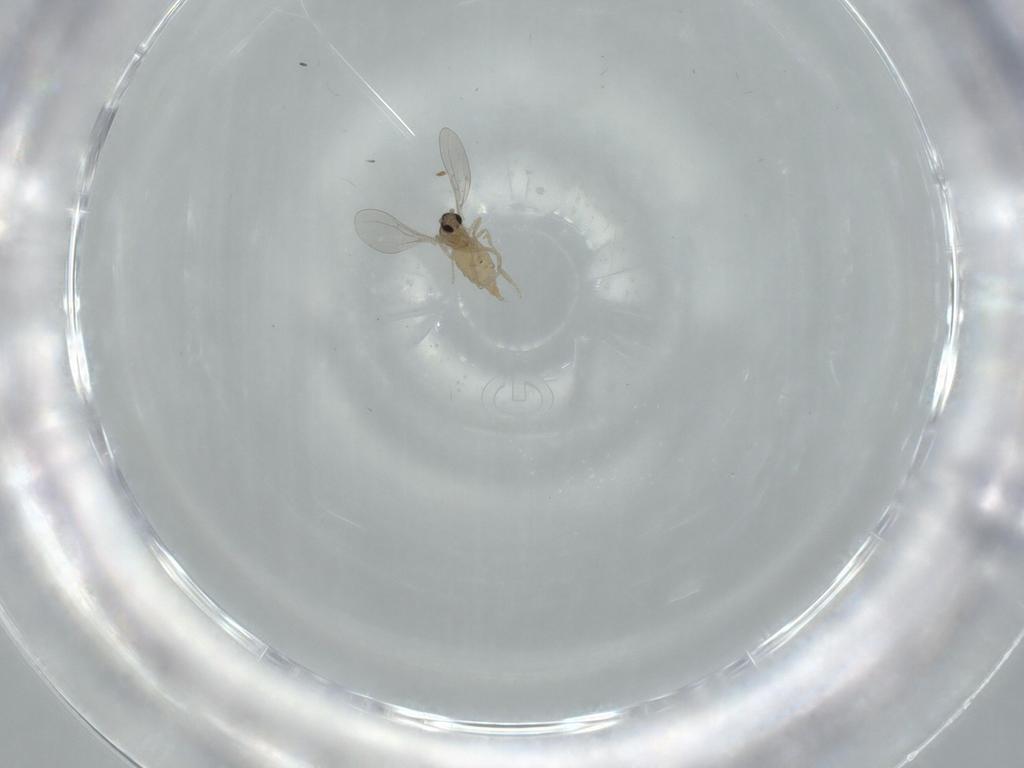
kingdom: Animalia
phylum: Arthropoda
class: Insecta
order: Diptera
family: Cecidomyiidae
